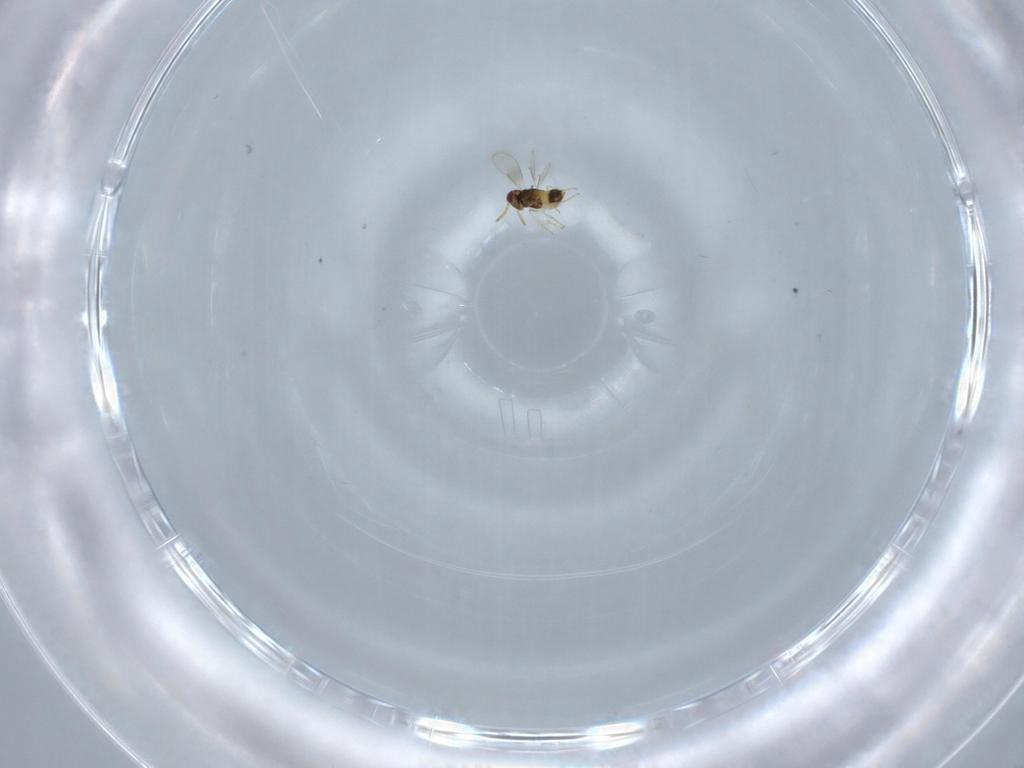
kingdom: Animalia
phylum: Arthropoda
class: Insecta
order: Hymenoptera
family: Aphelinidae
